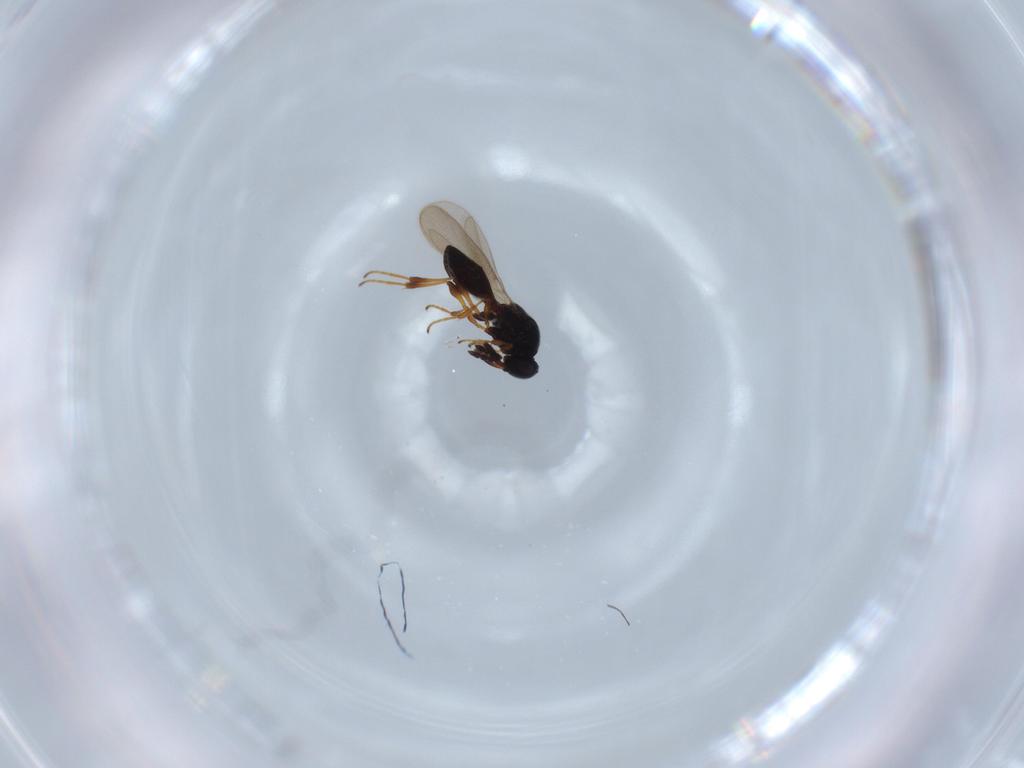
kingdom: Animalia
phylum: Arthropoda
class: Insecta
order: Hymenoptera
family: Platygastridae
